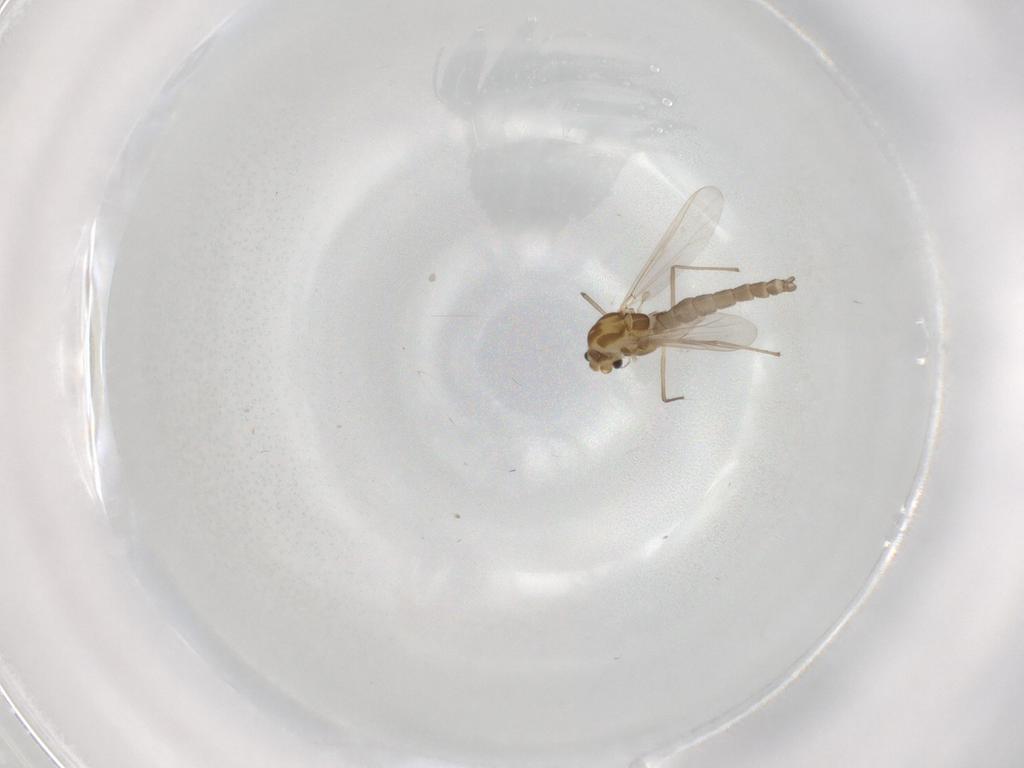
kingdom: Animalia
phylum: Arthropoda
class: Insecta
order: Diptera
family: Chironomidae
